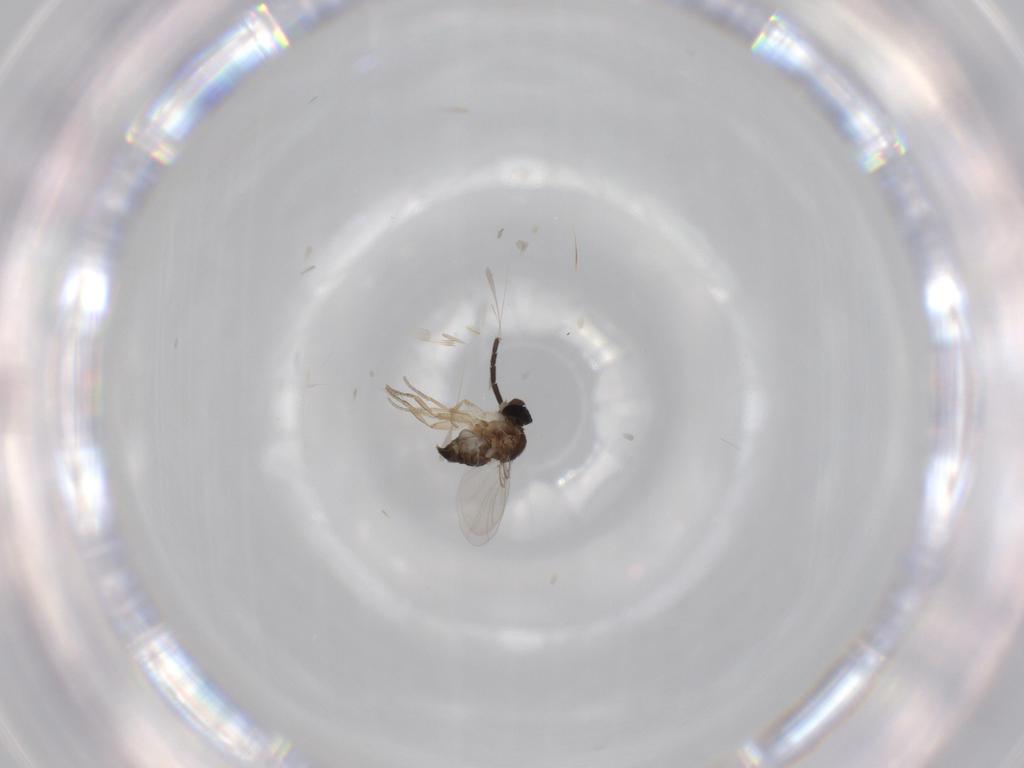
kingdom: Animalia
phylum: Arthropoda
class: Insecta
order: Diptera
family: Phoridae
